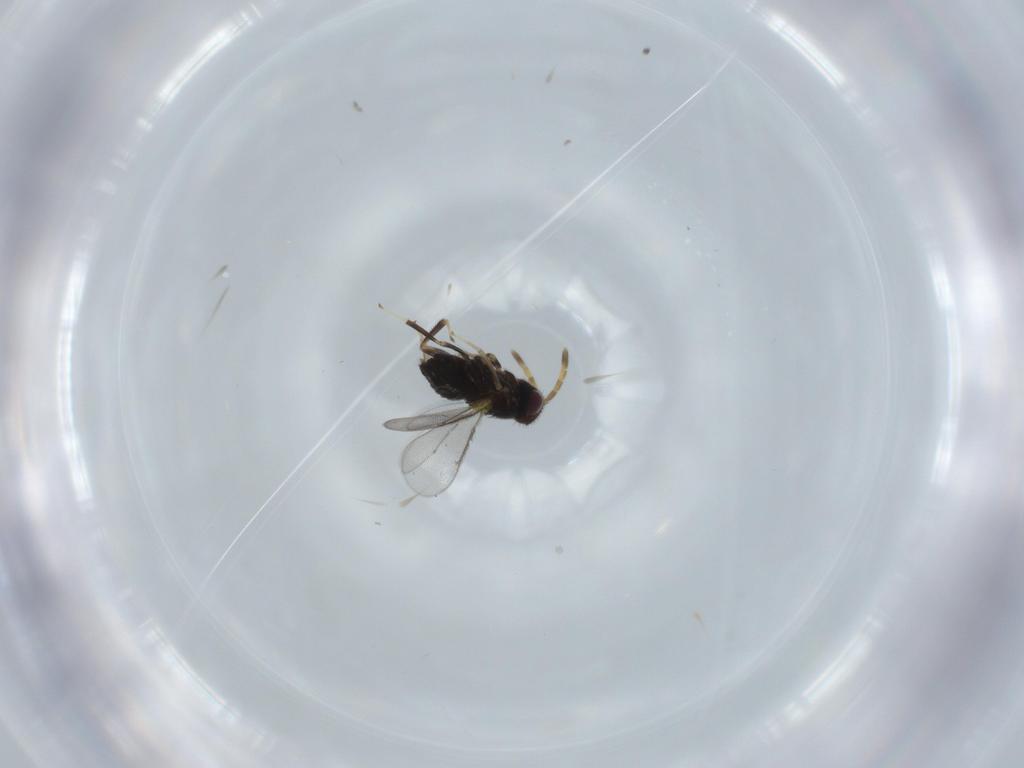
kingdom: Animalia
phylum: Arthropoda
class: Insecta
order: Hymenoptera
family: Aphelinidae
